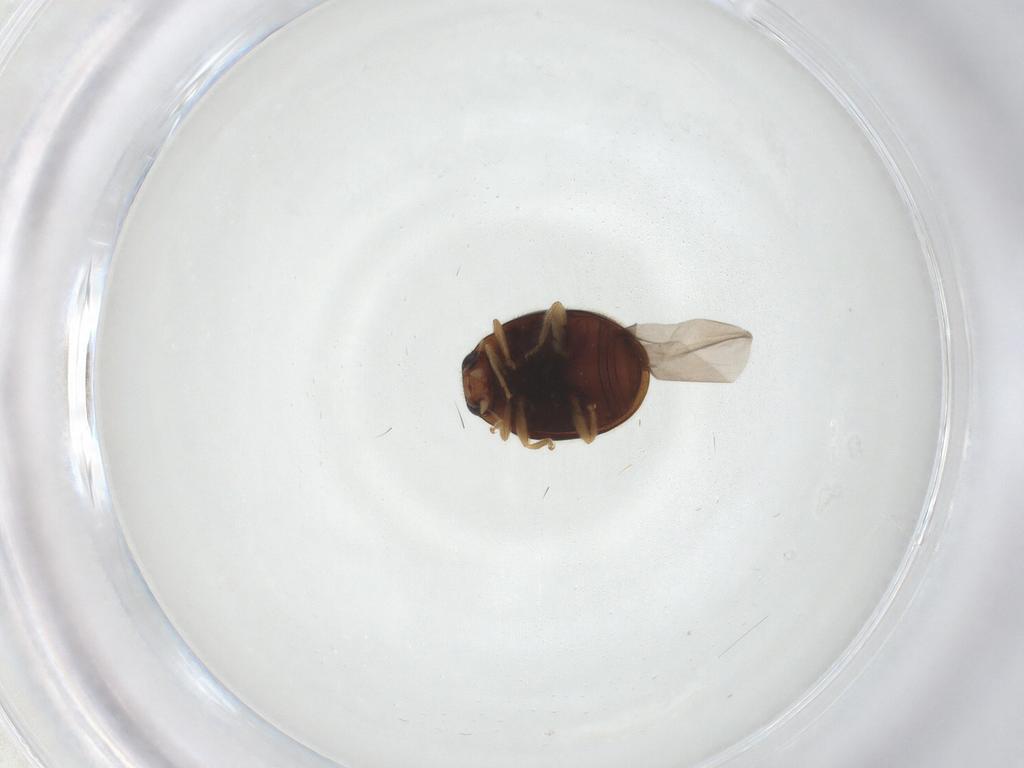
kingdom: Animalia
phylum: Arthropoda
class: Insecta
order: Coleoptera
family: Coccinellidae
